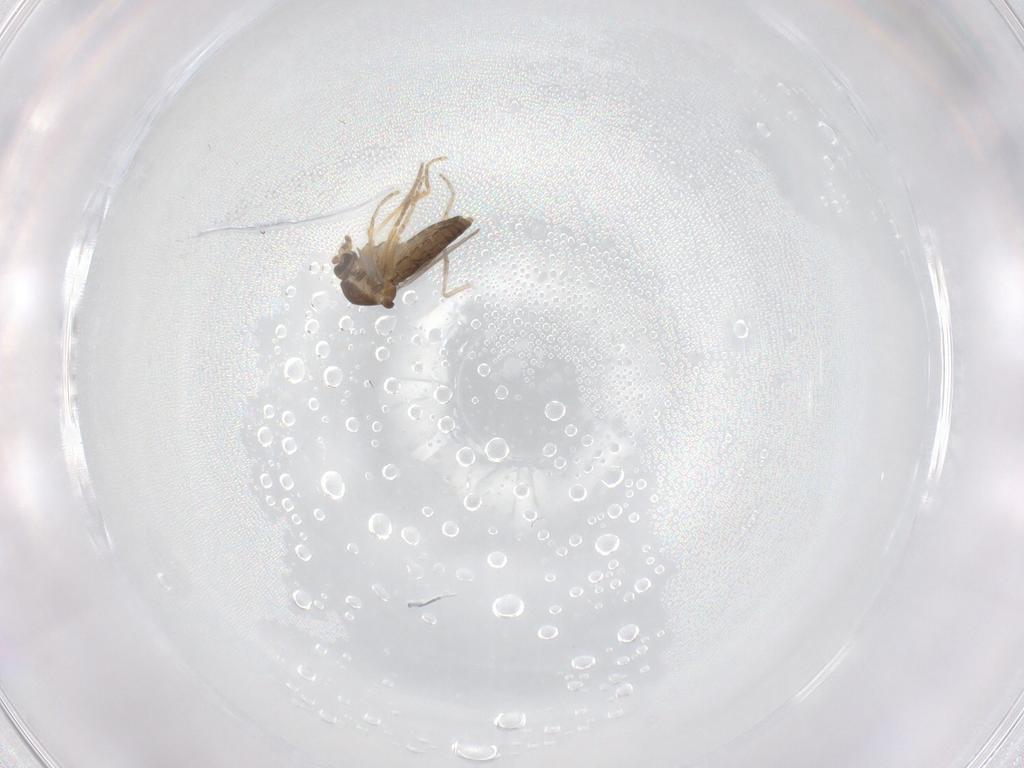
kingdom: Animalia
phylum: Arthropoda
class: Insecta
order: Diptera
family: Ceratopogonidae
